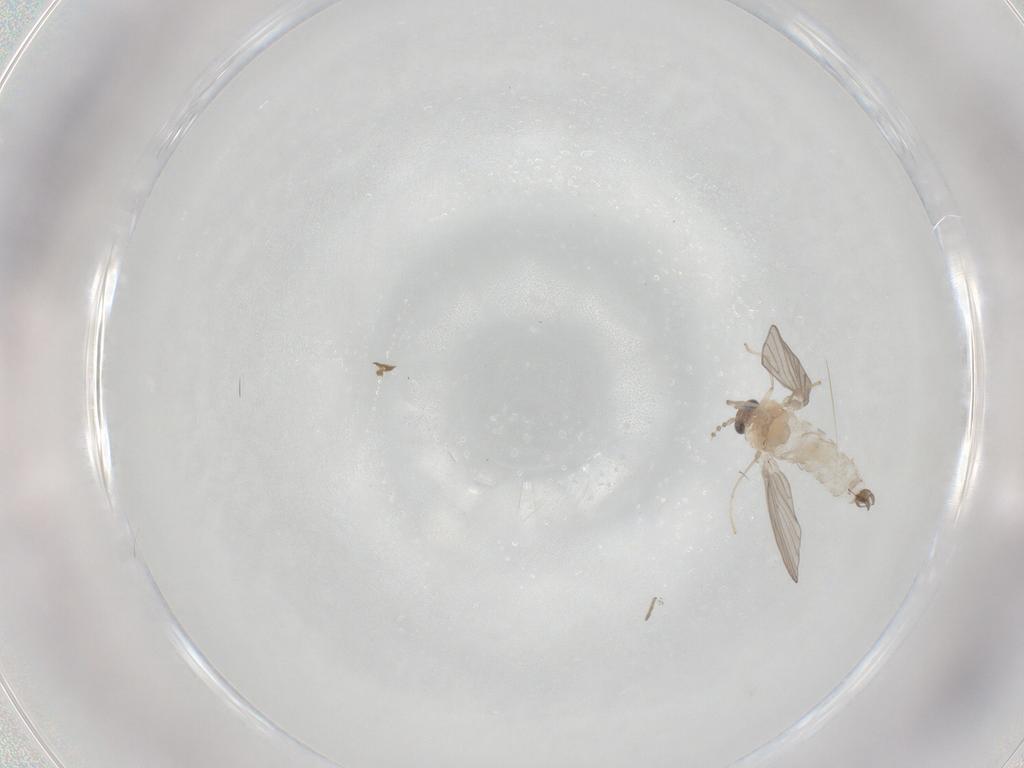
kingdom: Animalia
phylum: Arthropoda
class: Insecta
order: Diptera
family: Psychodidae
